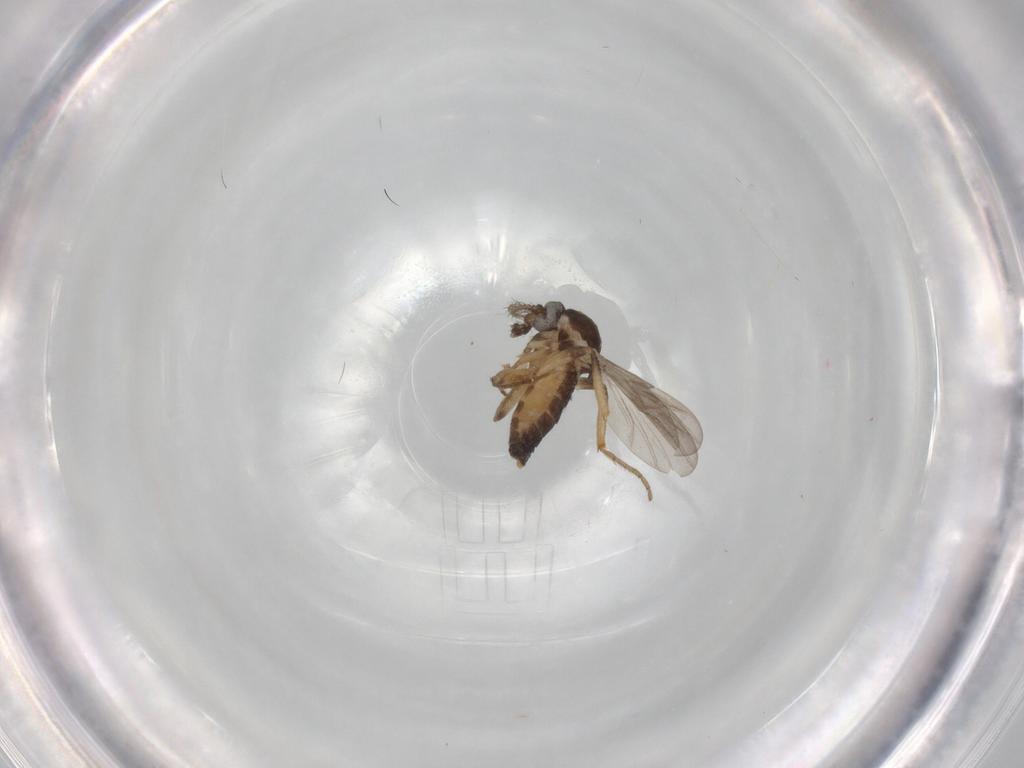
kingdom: Animalia
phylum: Arthropoda
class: Insecta
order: Diptera
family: Ceratopogonidae
